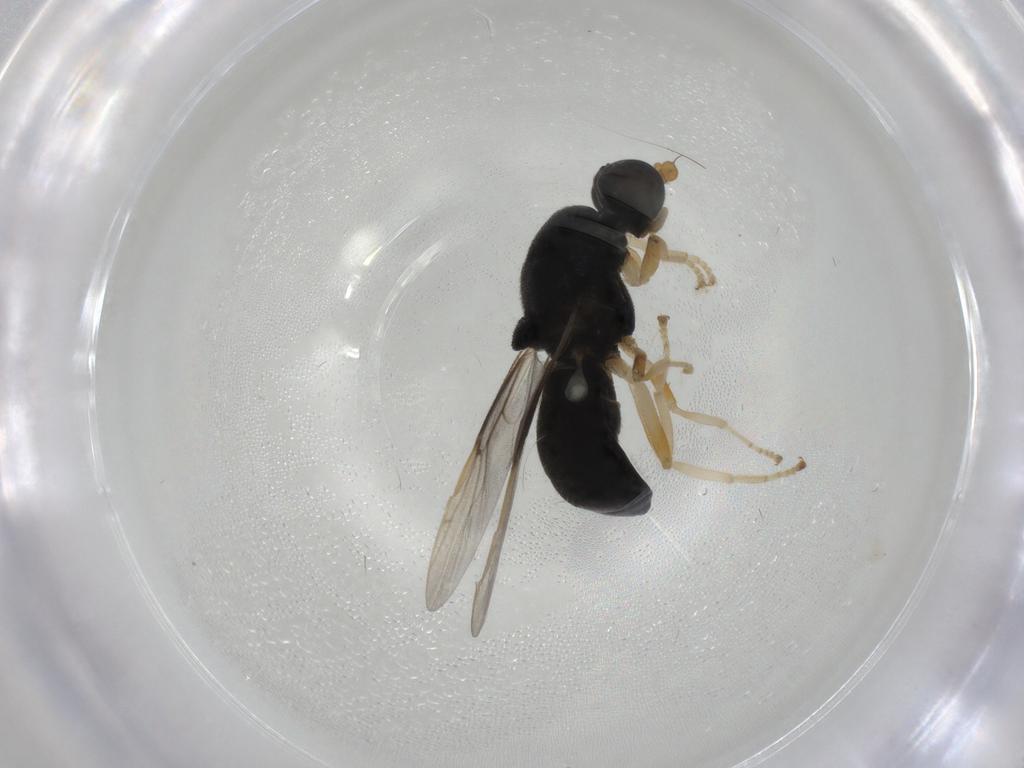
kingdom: Animalia
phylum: Arthropoda
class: Insecta
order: Diptera
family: Stratiomyidae
